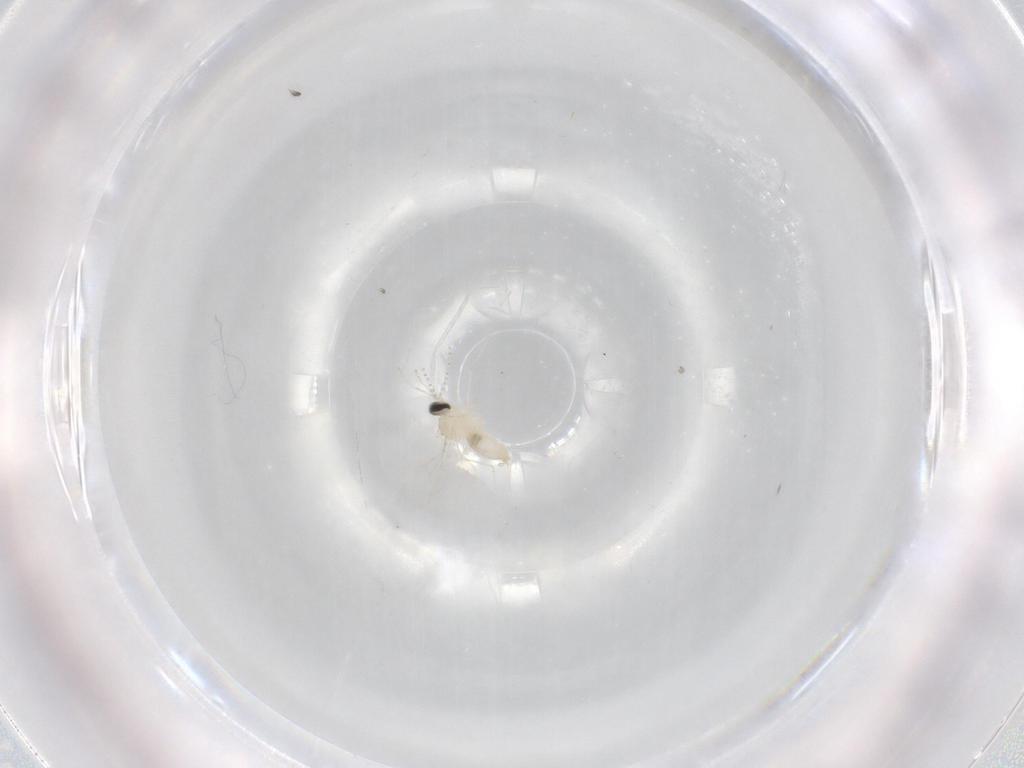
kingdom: Animalia
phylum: Arthropoda
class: Insecta
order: Diptera
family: Cecidomyiidae
